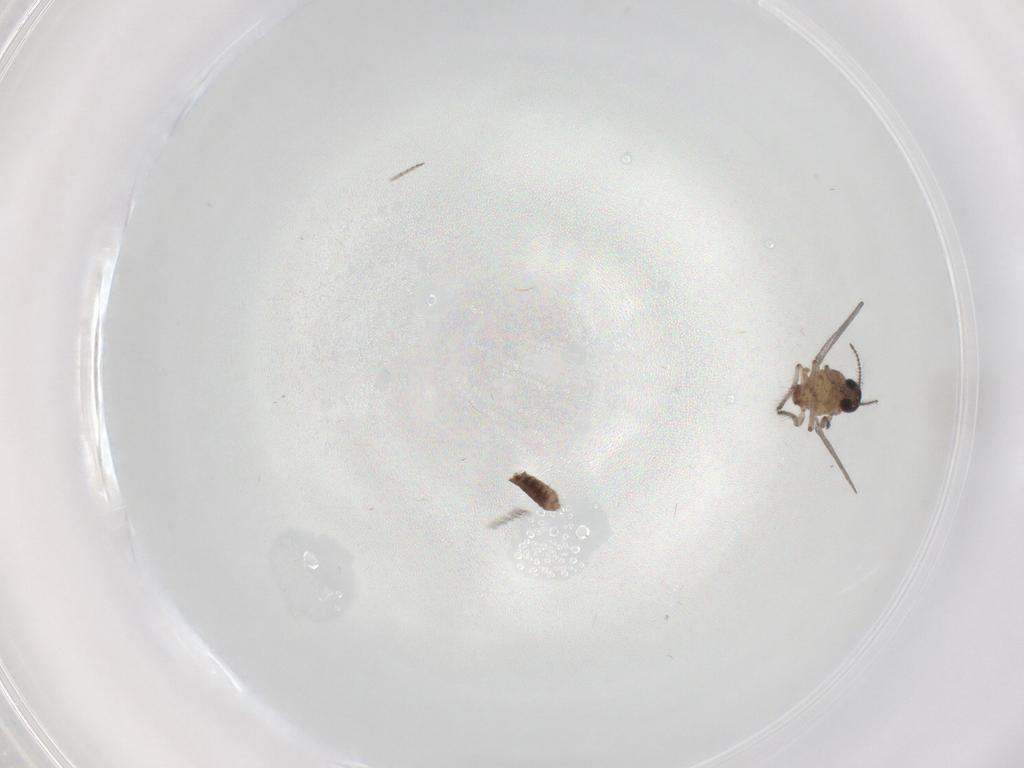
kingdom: Animalia
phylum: Arthropoda
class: Insecta
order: Diptera
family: Ceratopogonidae
